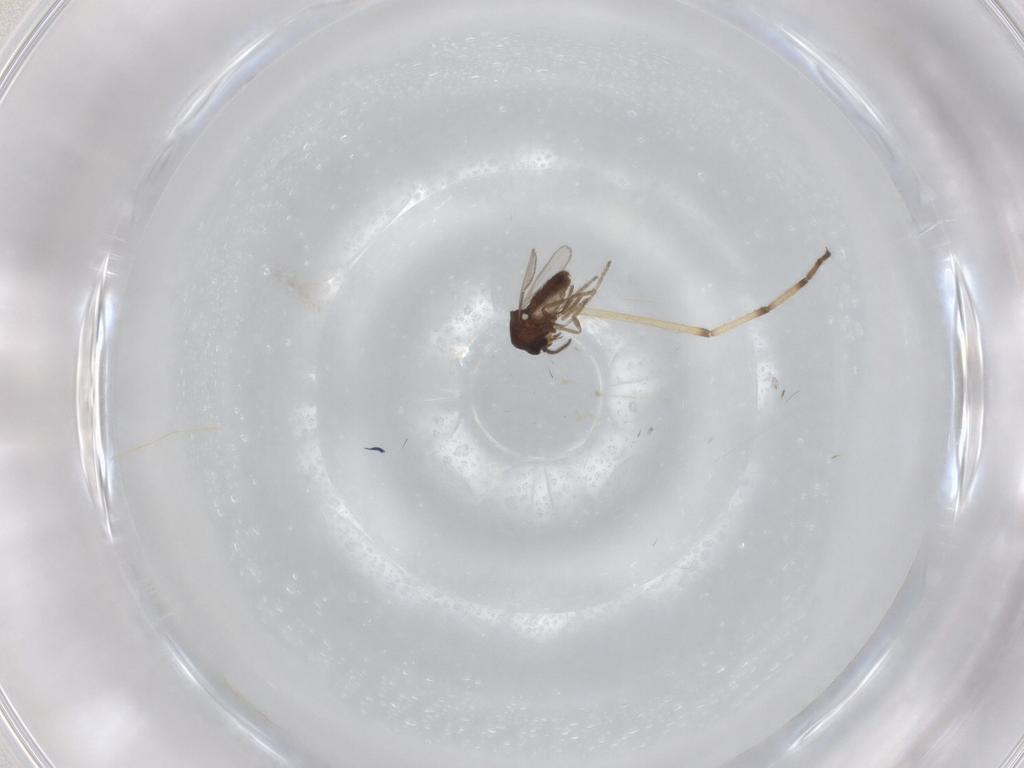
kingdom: Animalia
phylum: Arthropoda
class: Insecta
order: Diptera
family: Ceratopogonidae
